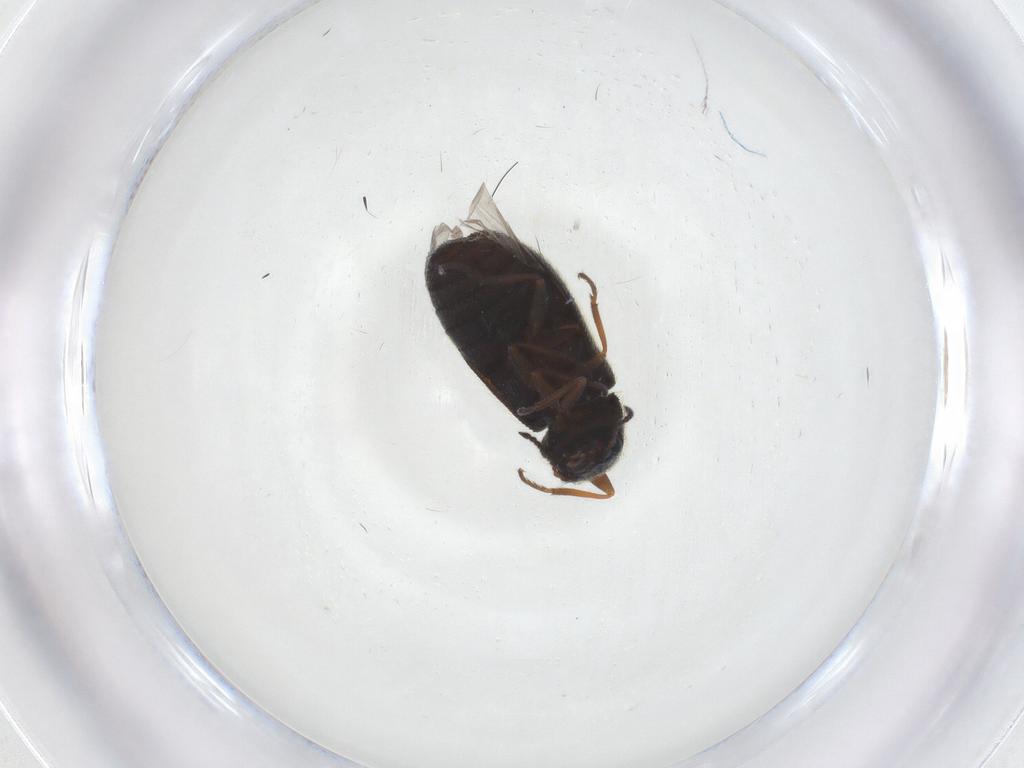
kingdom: Animalia
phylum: Arthropoda
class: Insecta
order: Coleoptera
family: Melyridae
